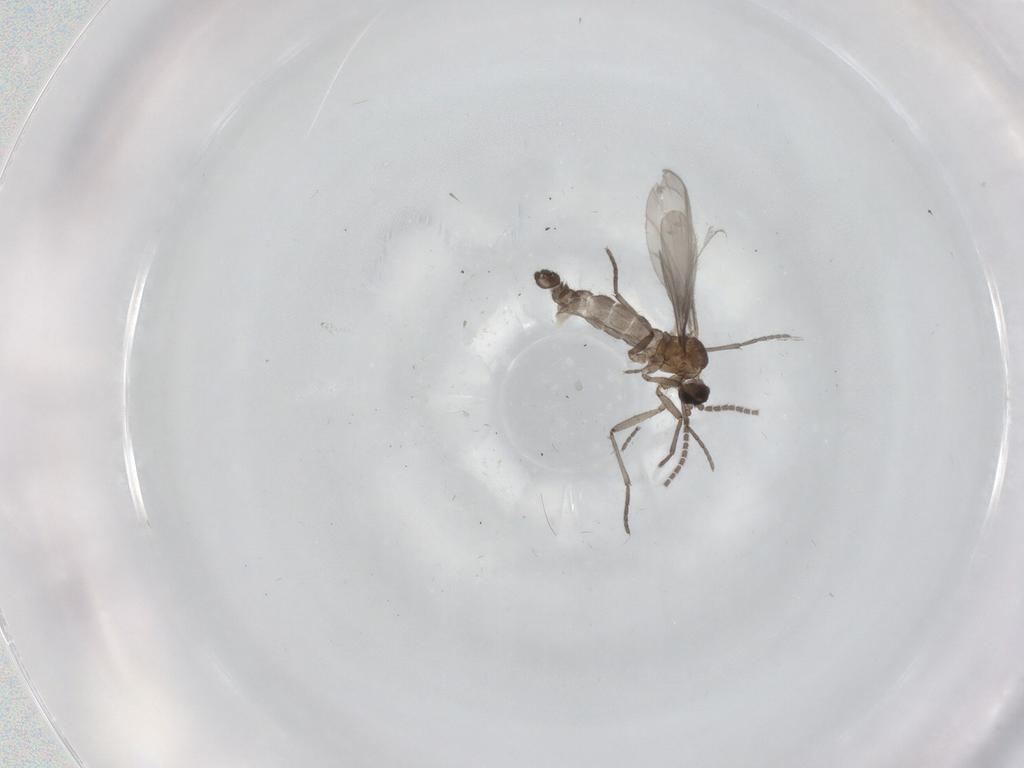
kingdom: Animalia
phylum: Arthropoda
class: Insecta
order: Diptera
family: Sciaridae
